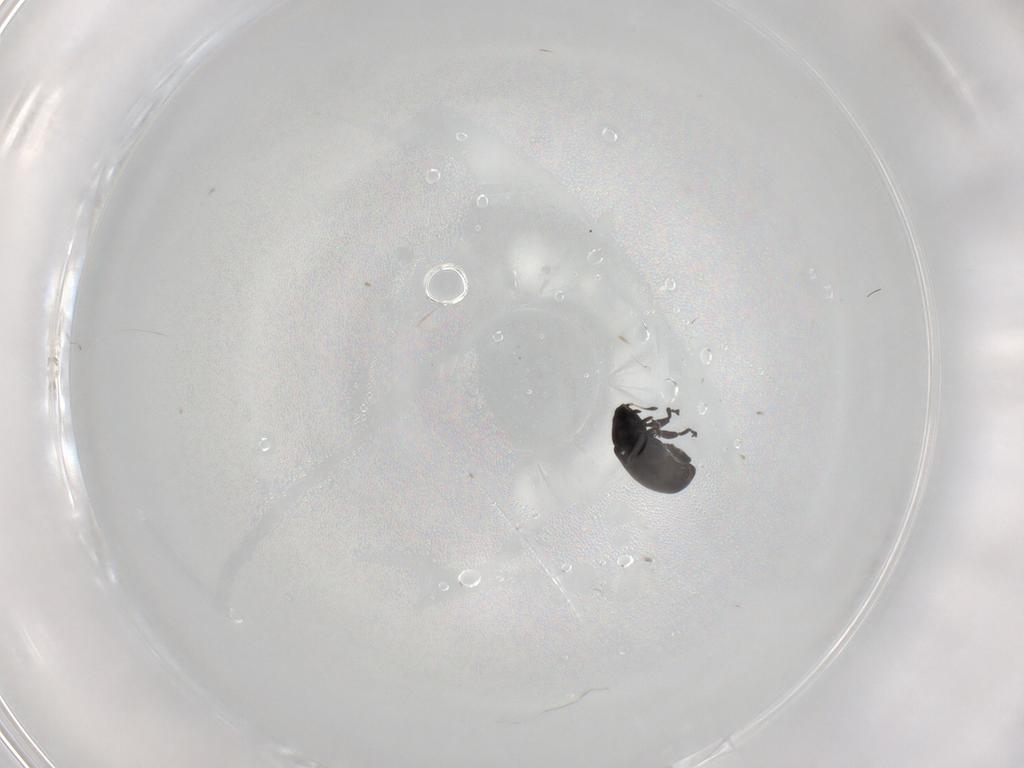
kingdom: Animalia
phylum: Arthropoda
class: Insecta
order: Coleoptera
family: Curculionidae
